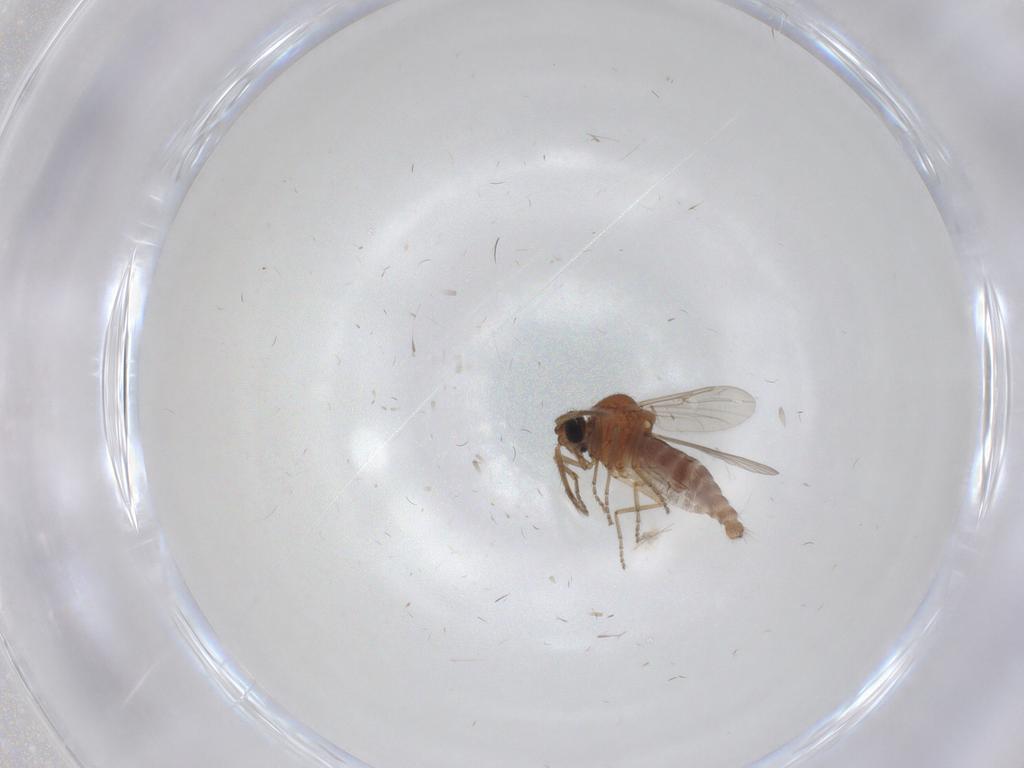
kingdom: Animalia
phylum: Arthropoda
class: Insecta
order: Diptera
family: Ceratopogonidae
